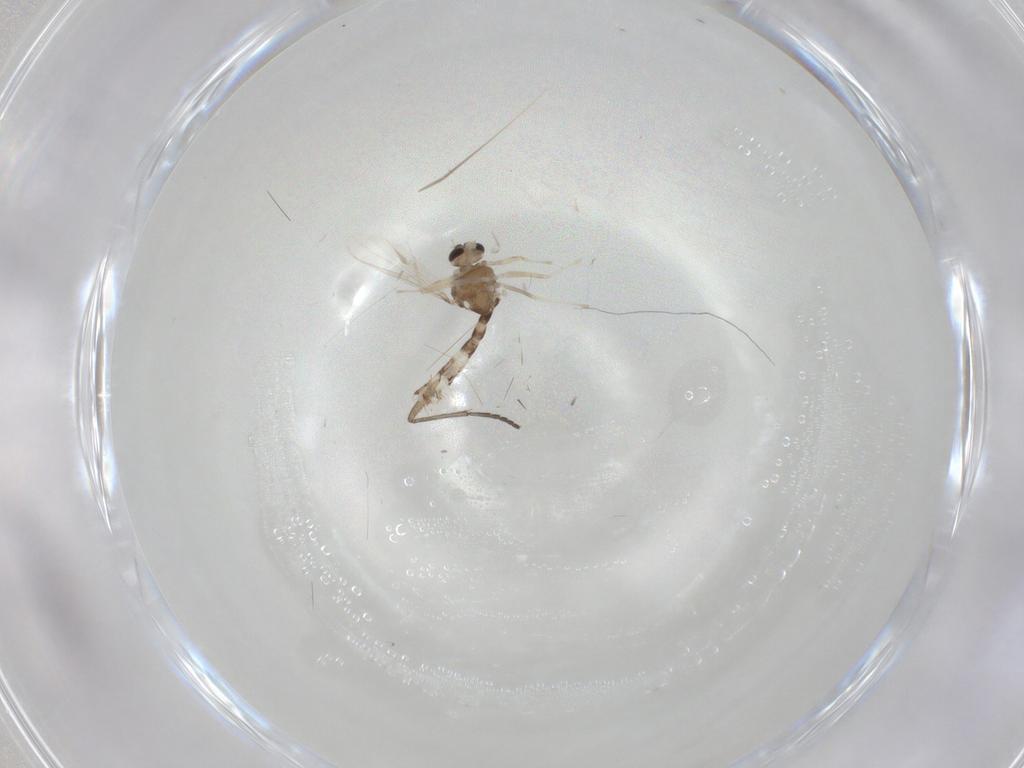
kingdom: Animalia
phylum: Arthropoda
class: Insecta
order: Diptera
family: Chironomidae
